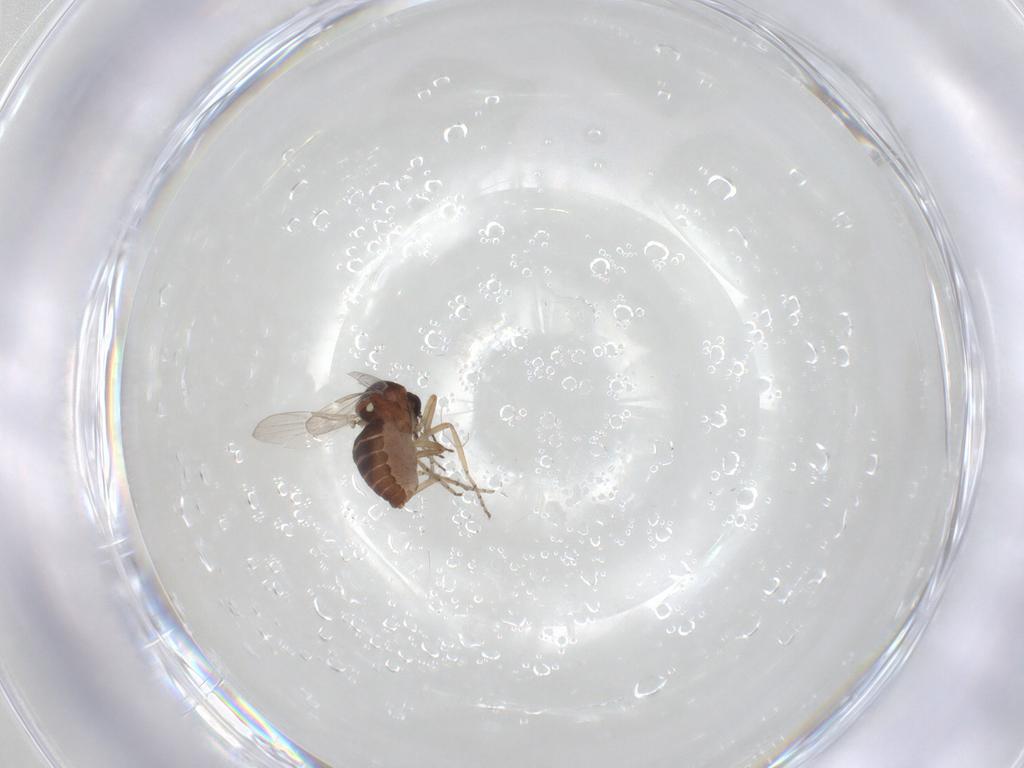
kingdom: Animalia
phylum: Arthropoda
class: Insecta
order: Diptera
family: Ceratopogonidae
